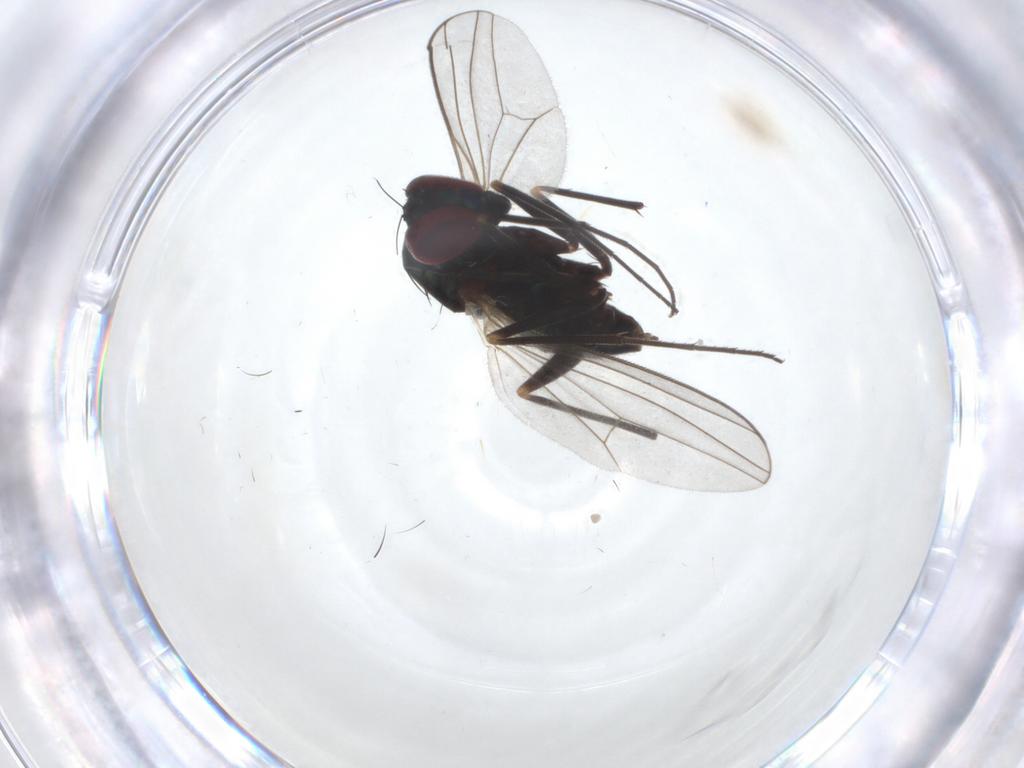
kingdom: Animalia
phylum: Arthropoda
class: Insecta
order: Diptera
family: Dolichopodidae
